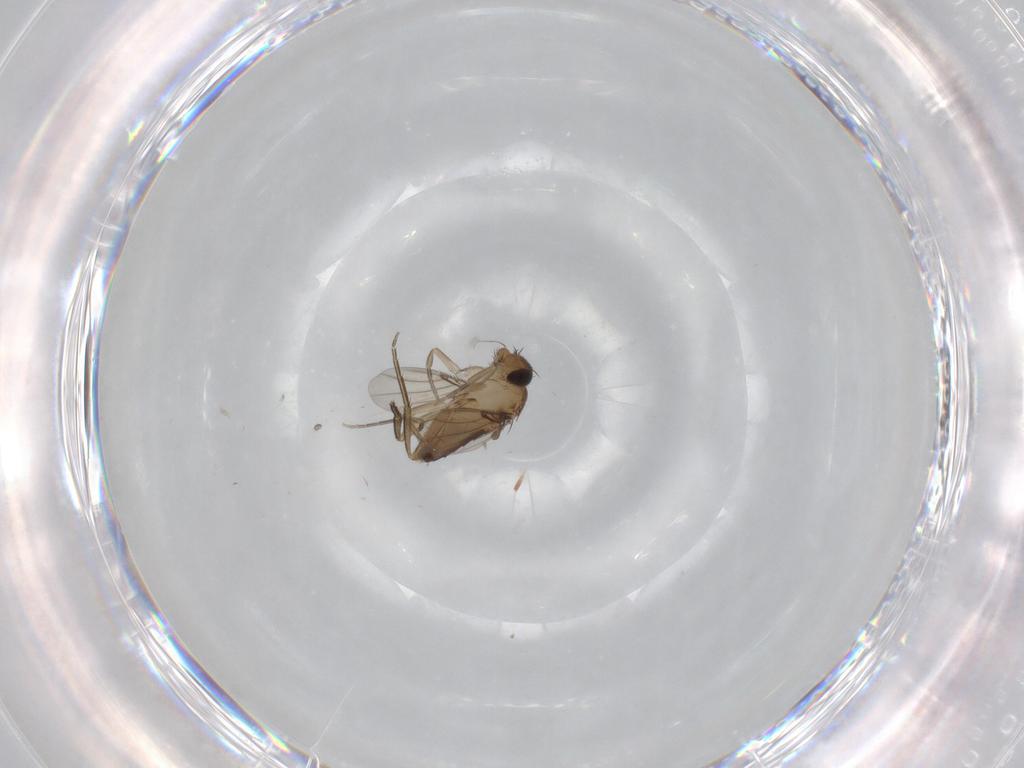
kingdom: Animalia
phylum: Arthropoda
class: Insecta
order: Diptera
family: Phoridae
